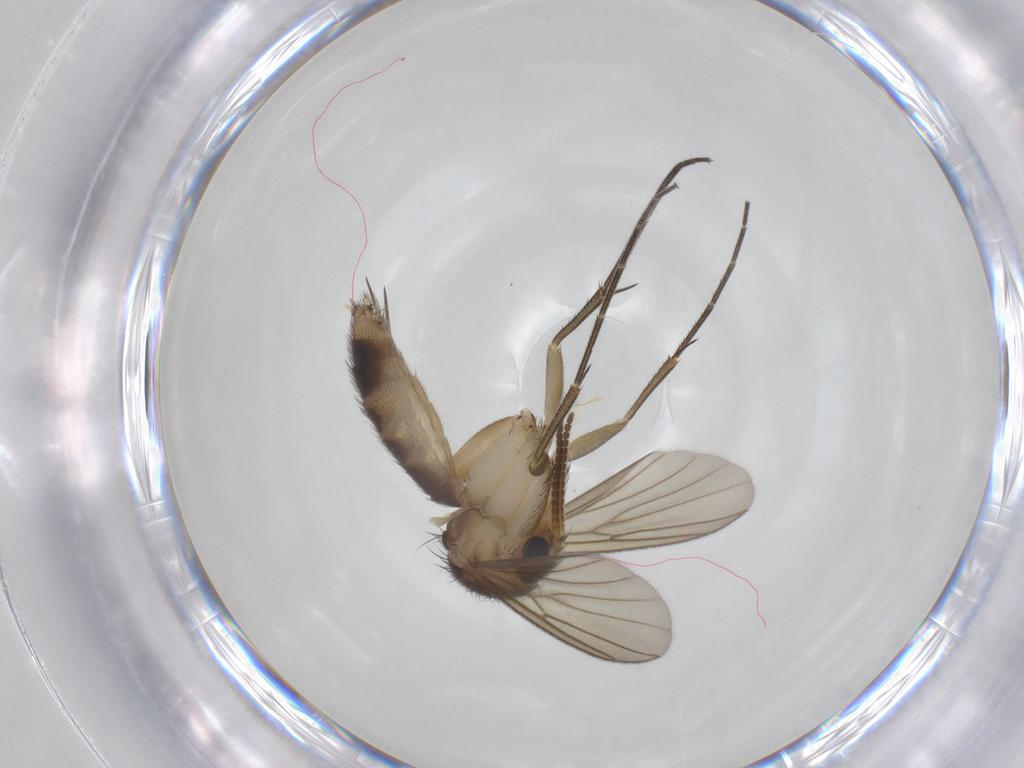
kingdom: Animalia
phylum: Arthropoda
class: Insecta
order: Diptera
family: Mycetophilidae
